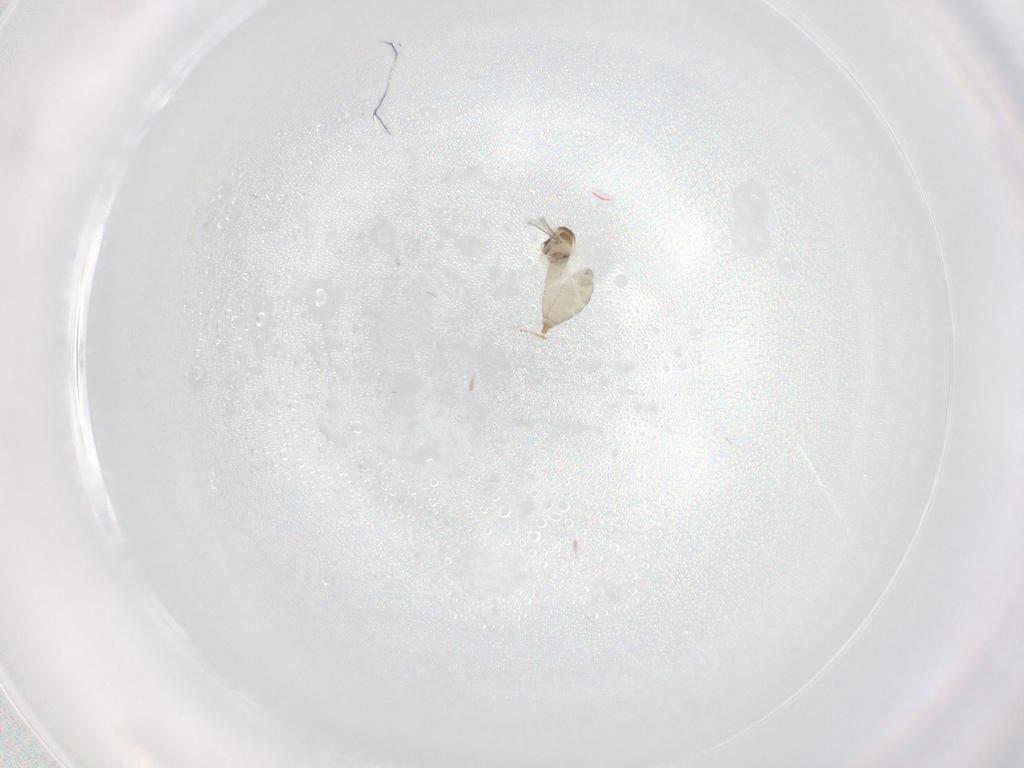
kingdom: Animalia
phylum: Arthropoda
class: Insecta
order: Diptera
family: Cecidomyiidae
